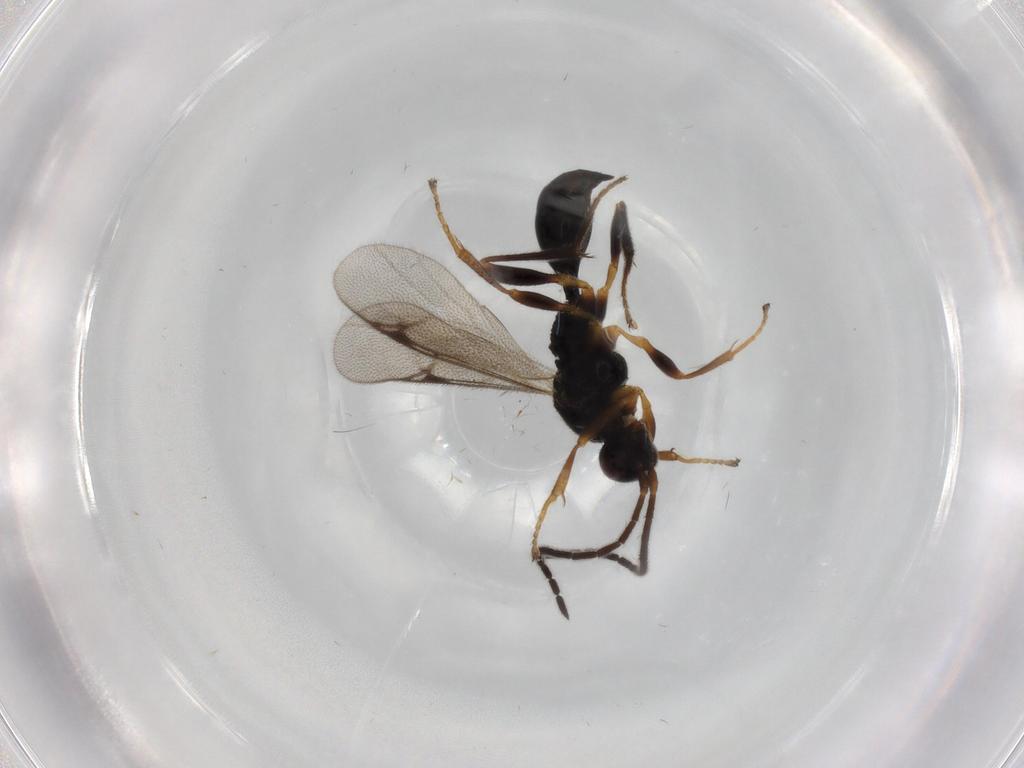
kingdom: Animalia
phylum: Arthropoda
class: Insecta
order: Hymenoptera
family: Proctotrupidae
